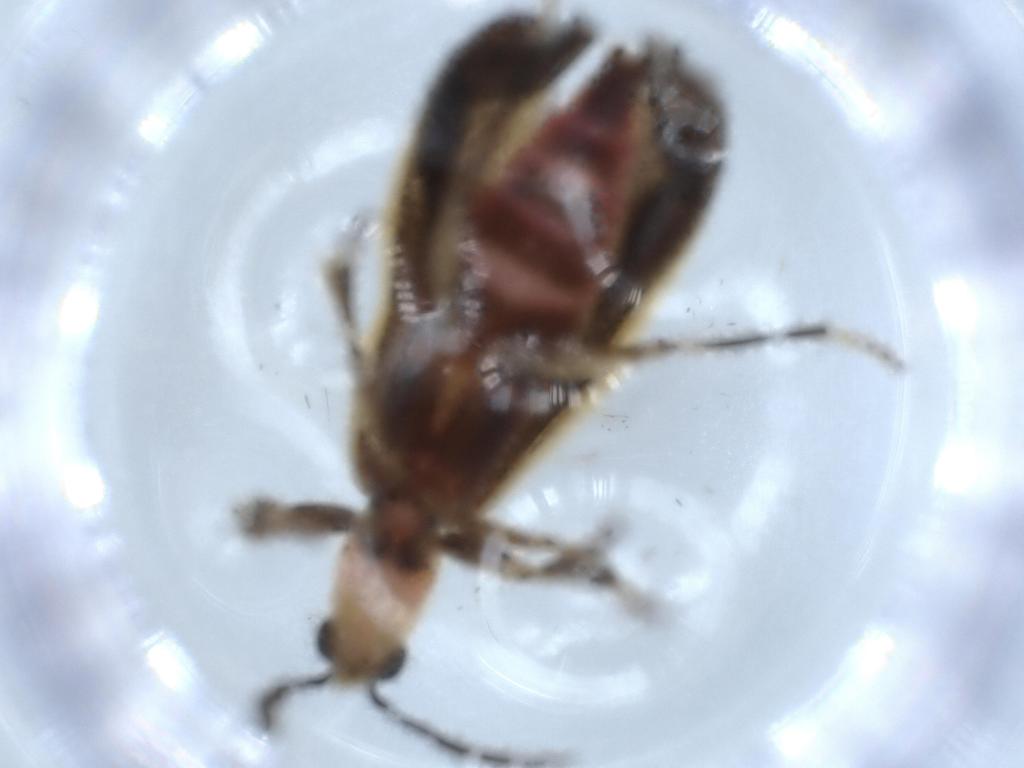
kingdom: Animalia
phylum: Arthropoda
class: Insecta
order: Coleoptera
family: Cleridae
